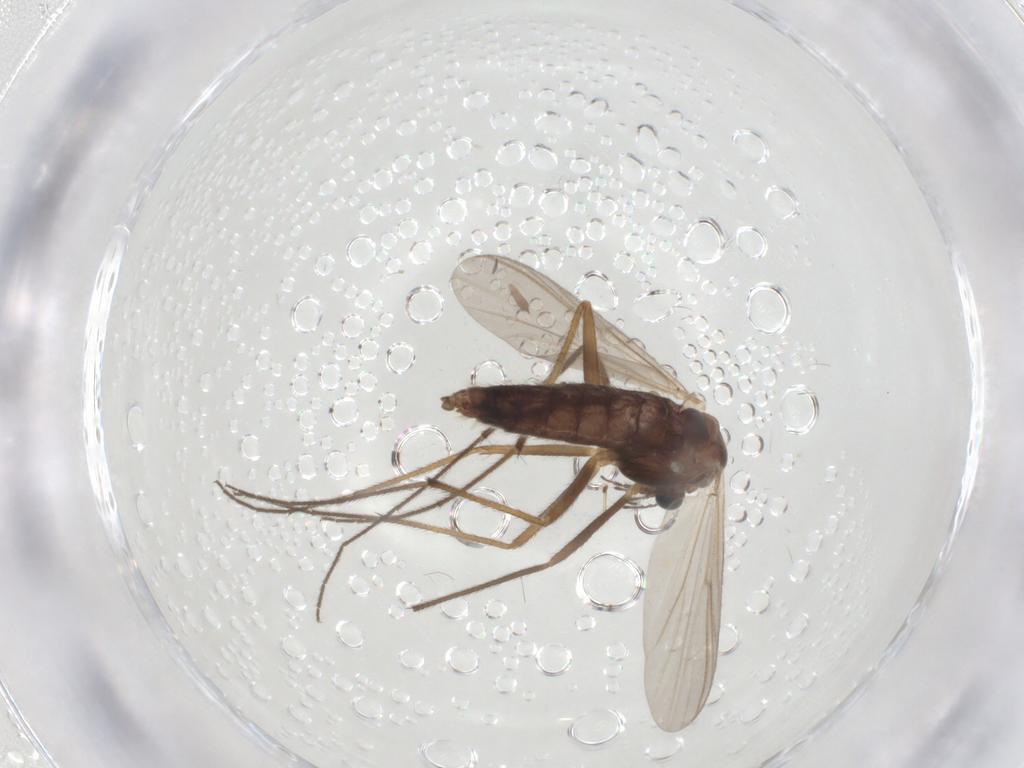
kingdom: Animalia
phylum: Arthropoda
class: Insecta
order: Diptera
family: Chironomidae
